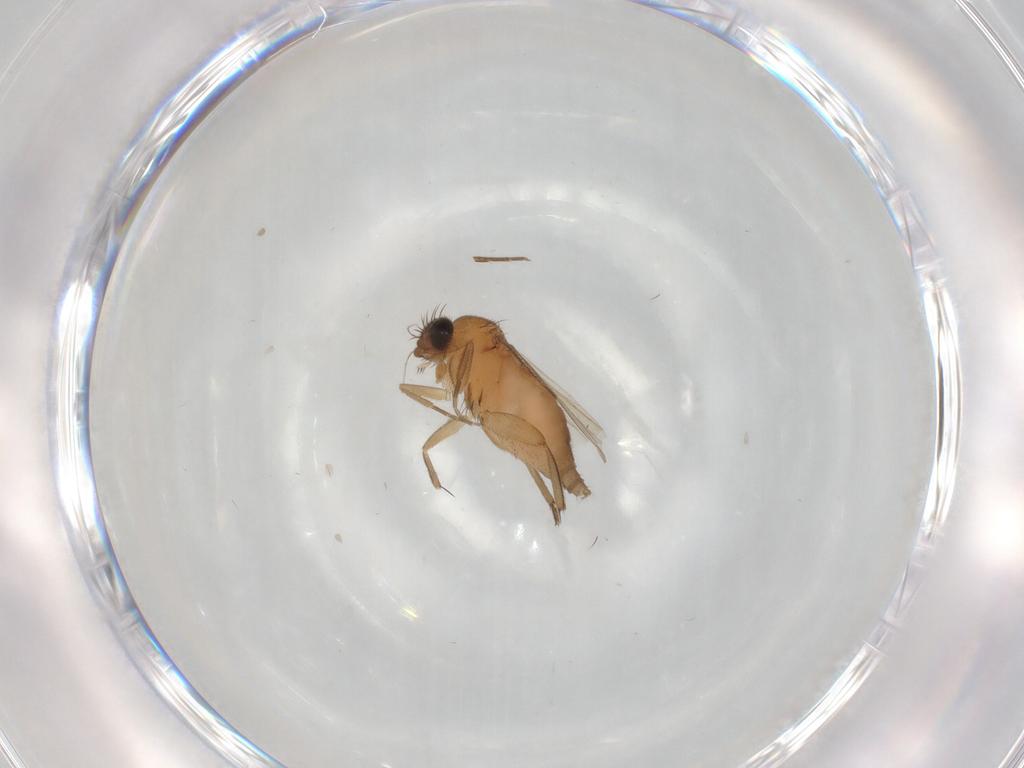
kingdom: Animalia
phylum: Arthropoda
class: Insecta
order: Diptera
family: Phoridae
